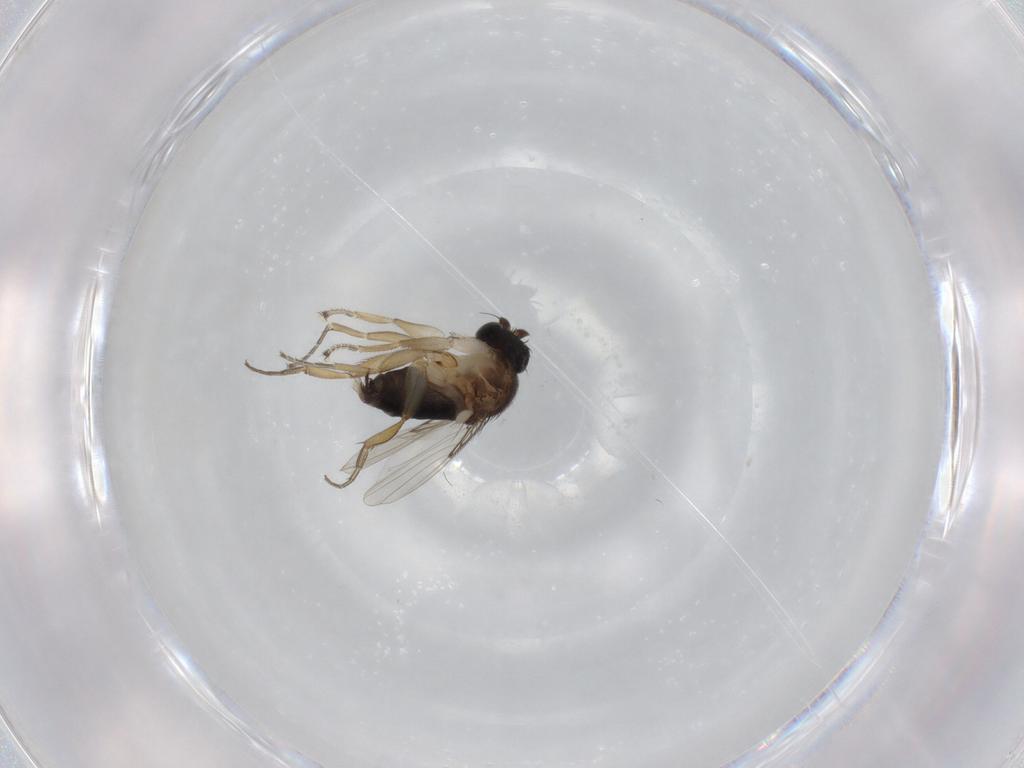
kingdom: Animalia
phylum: Arthropoda
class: Insecta
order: Diptera
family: Phoridae
